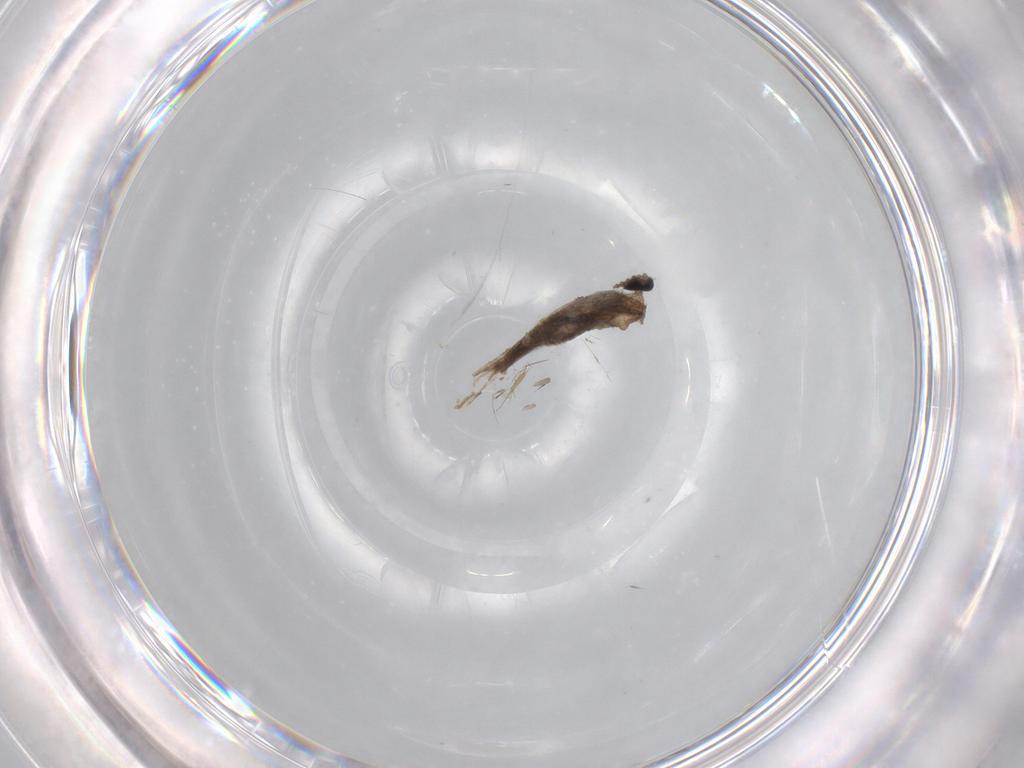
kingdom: Animalia
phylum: Arthropoda
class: Insecta
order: Diptera
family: Cecidomyiidae
